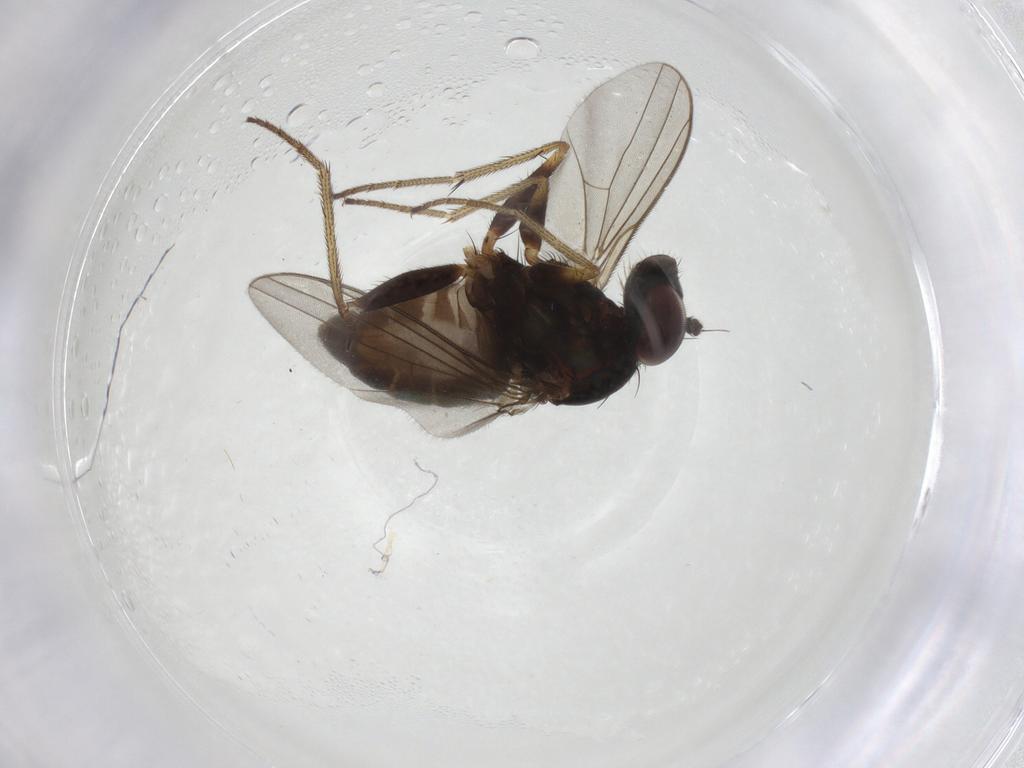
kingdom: Animalia
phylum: Arthropoda
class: Insecta
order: Diptera
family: Cecidomyiidae
